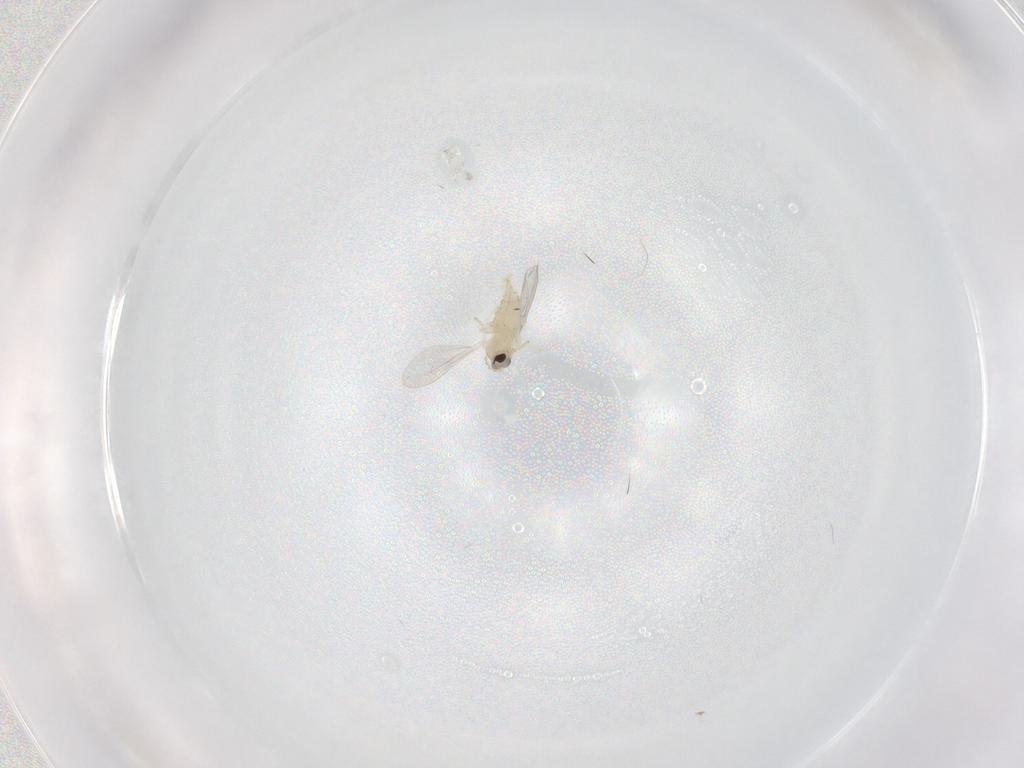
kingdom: Animalia
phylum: Arthropoda
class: Insecta
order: Diptera
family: Cecidomyiidae
